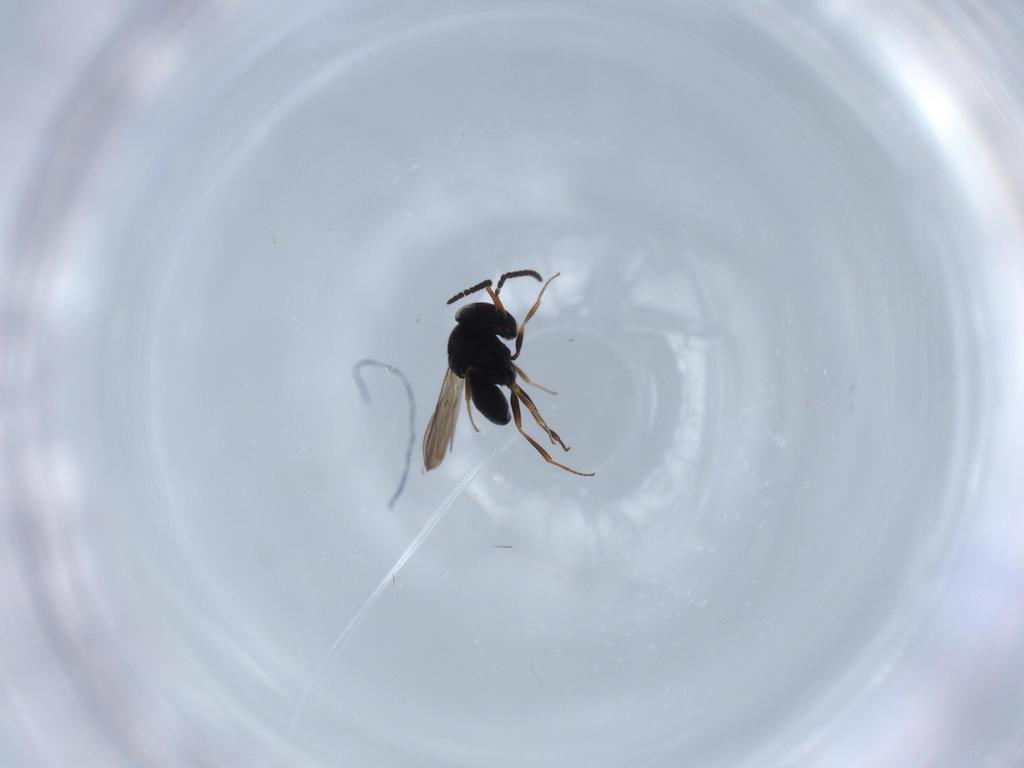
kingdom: Animalia
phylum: Arthropoda
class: Insecta
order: Hymenoptera
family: Scelionidae
